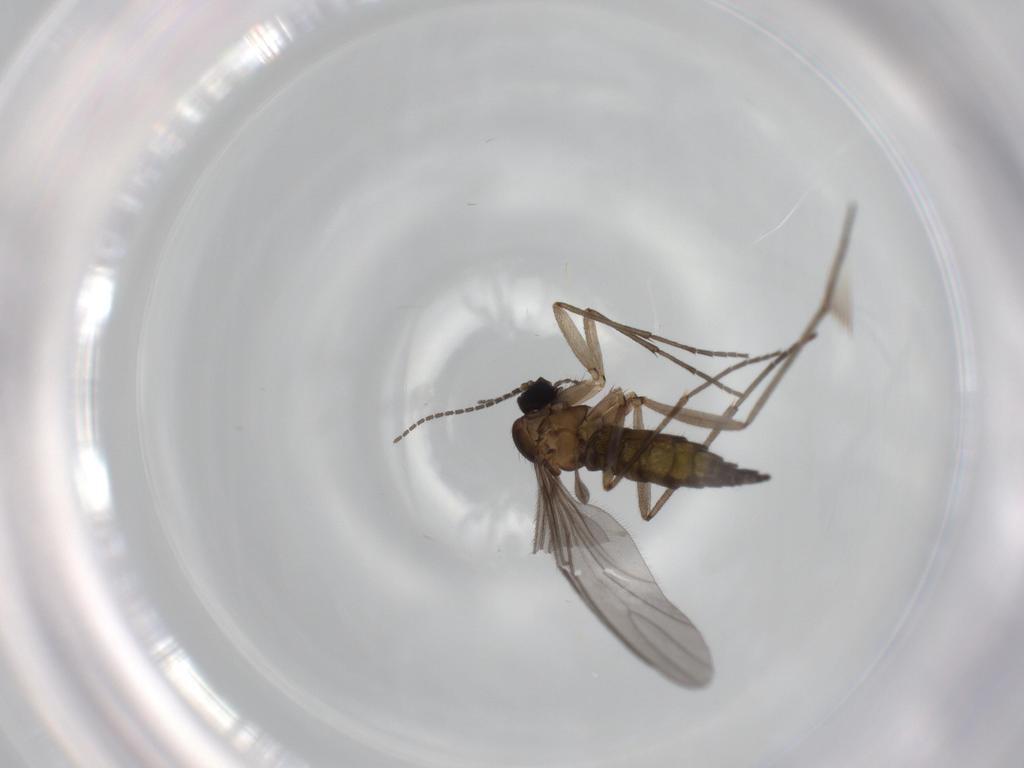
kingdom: Animalia
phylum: Arthropoda
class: Insecta
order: Diptera
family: Sciaridae
